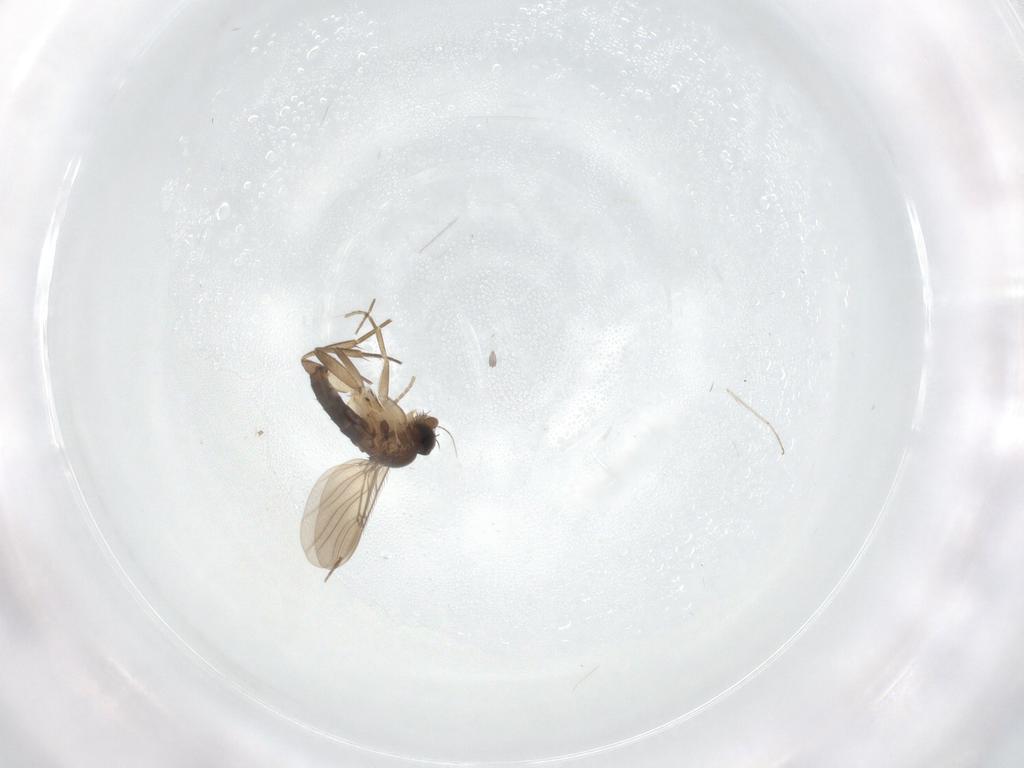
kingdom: Animalia
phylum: Arthropoda
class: Insecta
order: Diptera
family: Phoridae
